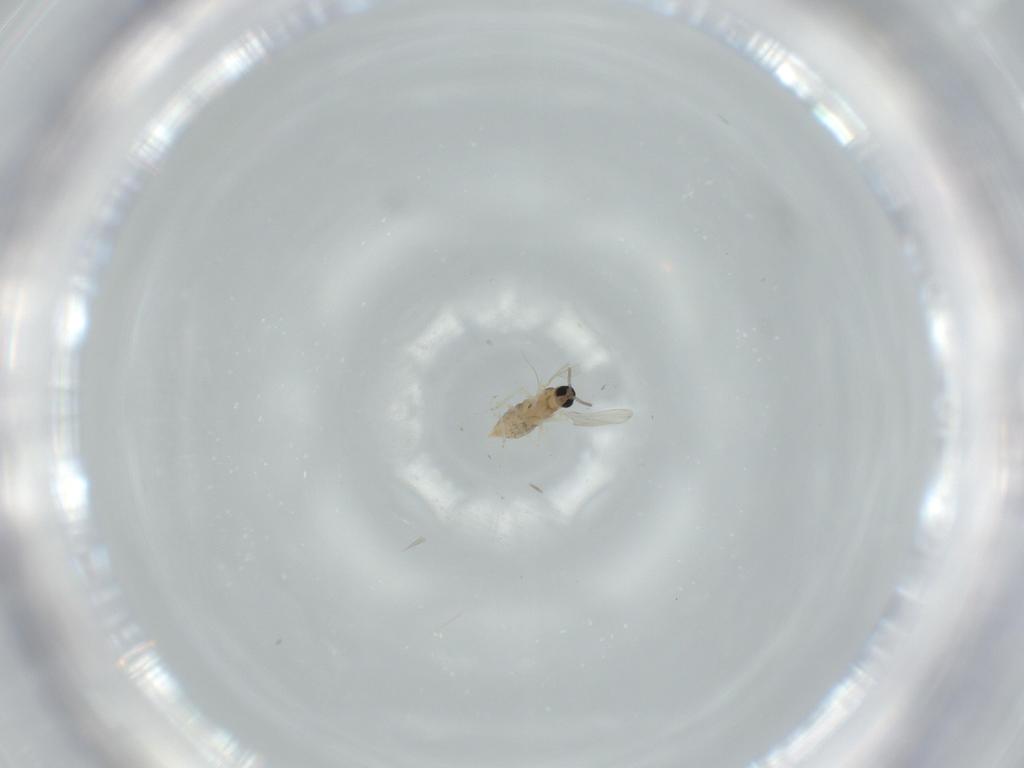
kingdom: Animalia
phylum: Arthropoda
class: Insecta
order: Diptera
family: Cecidomyiidae
